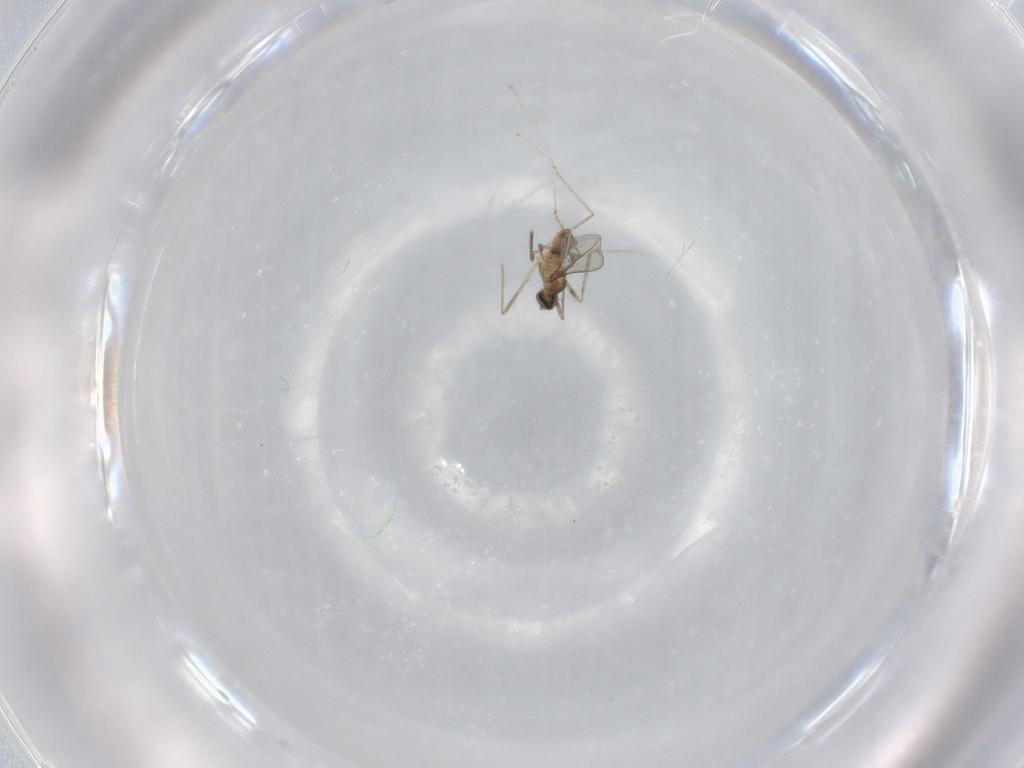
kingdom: Animalia
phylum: Arthropoda
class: Insecta
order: Diptera
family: Cecidomyiidae
